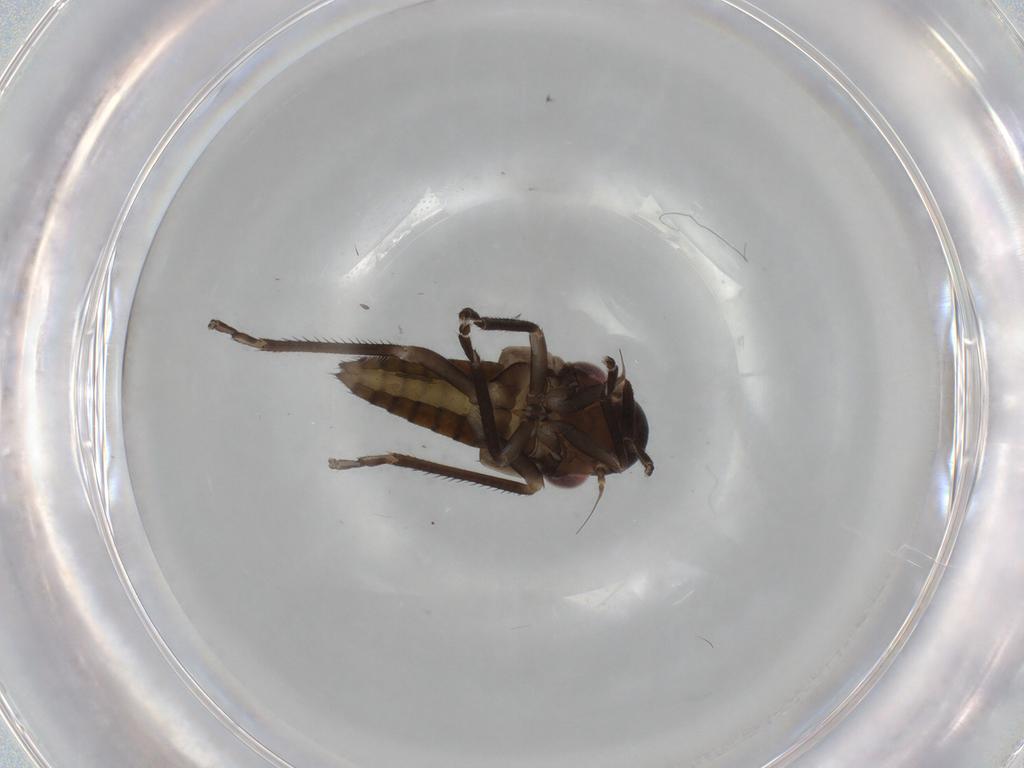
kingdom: Animalia
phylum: Arthropoda
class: Insecta
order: Hemiptera
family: Cicadellidae
